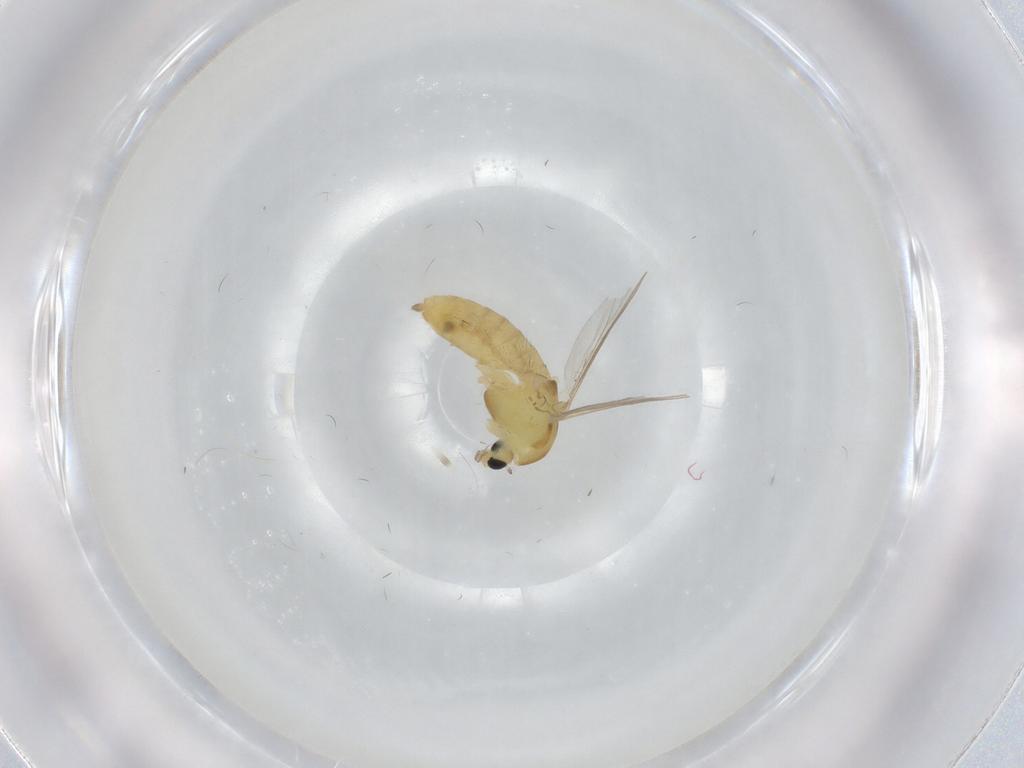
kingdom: Animalia
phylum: Arthropoda
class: Insecta
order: Diptera
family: Chironomidae
